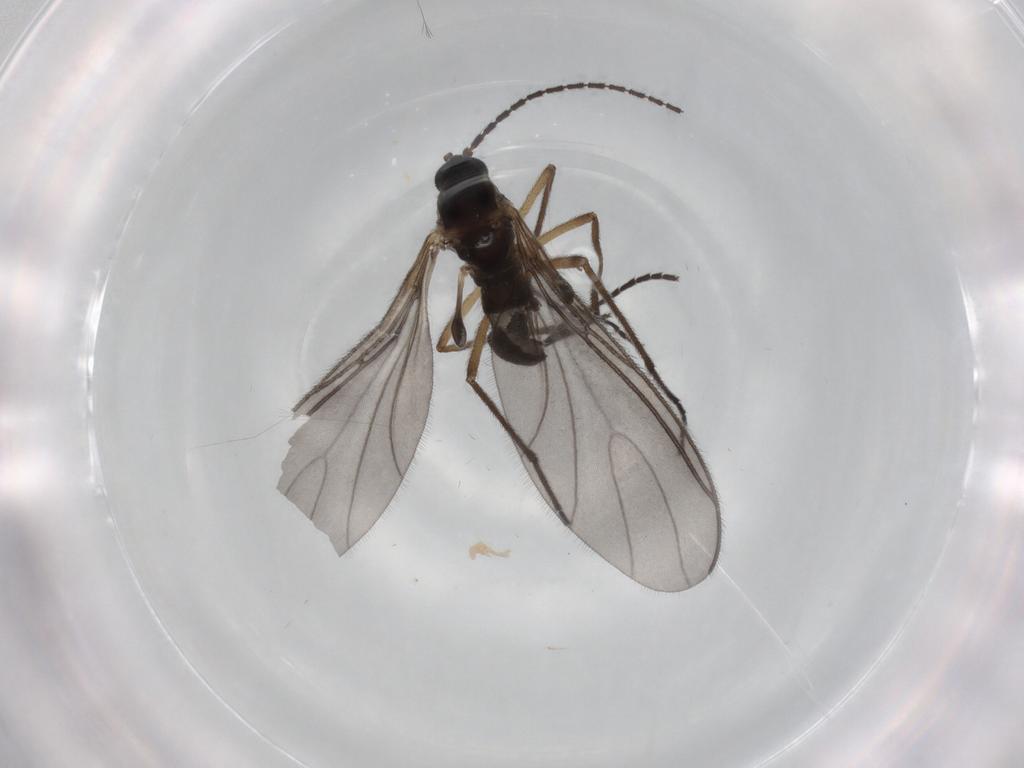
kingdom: Animalia
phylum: Arthropoda
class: Insecta
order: Diptera
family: Sciaridae
